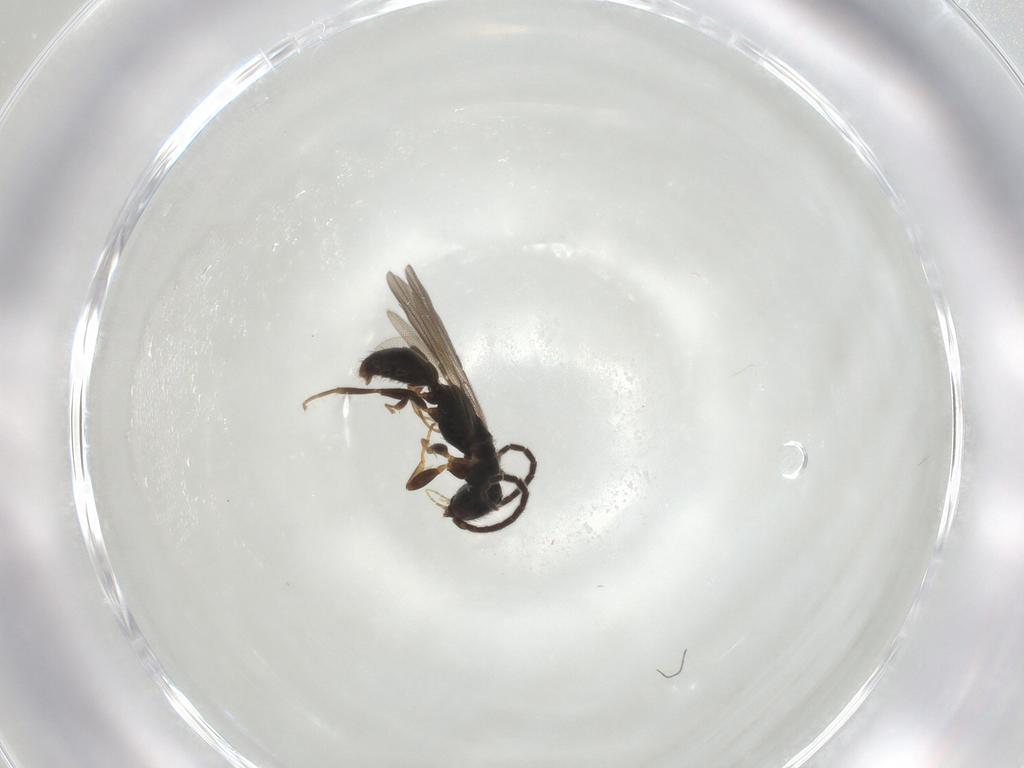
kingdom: Animalia
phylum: Arthropoda
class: Insecta
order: Hymenoptera
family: Bethylidae
